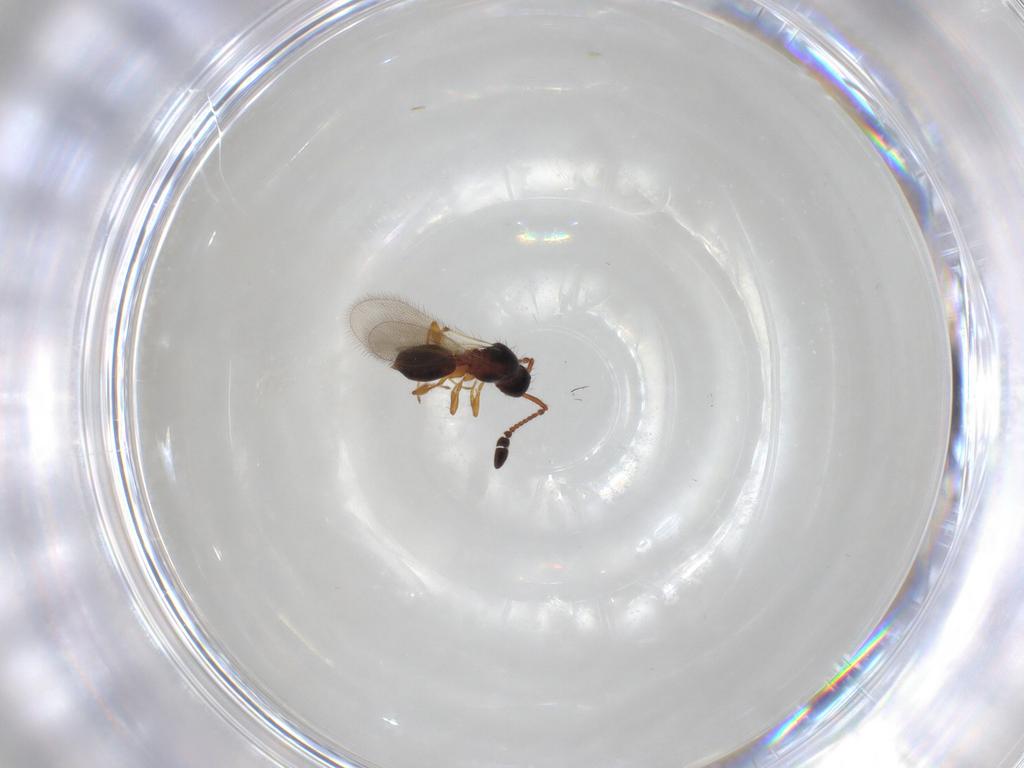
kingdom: Animalia
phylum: Arthropoda
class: Insecta
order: Hymenoptera
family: Diapriidae
